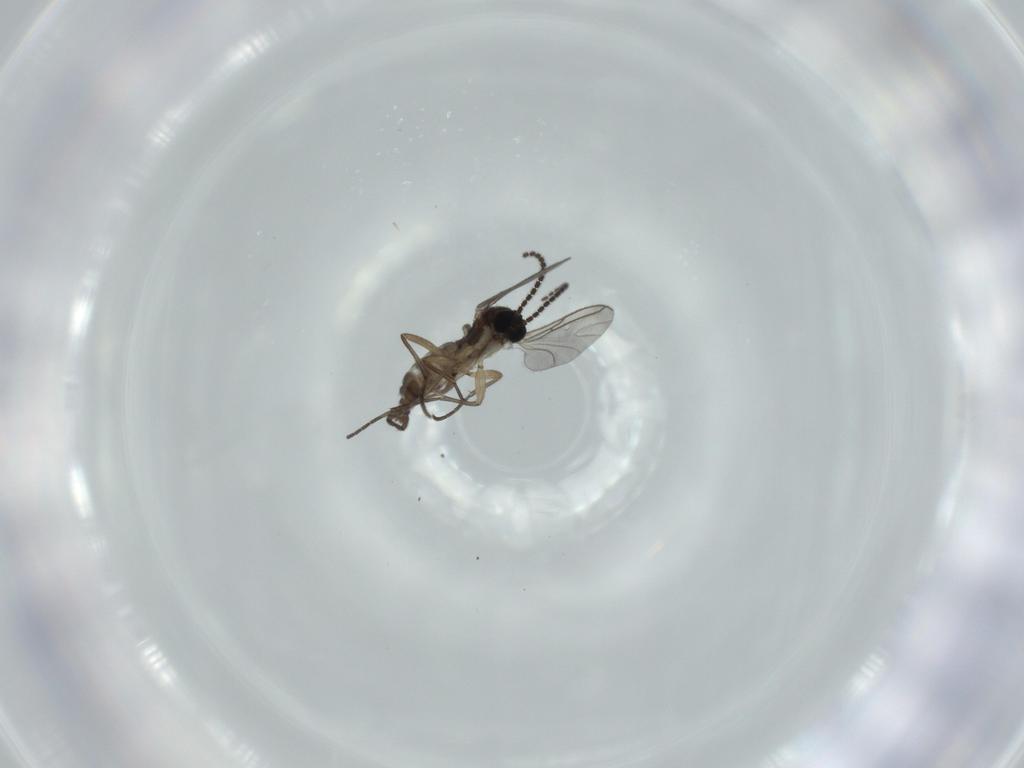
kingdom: Animalia
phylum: Arthropoda
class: Insecta
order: Diptera
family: Sciaridae
